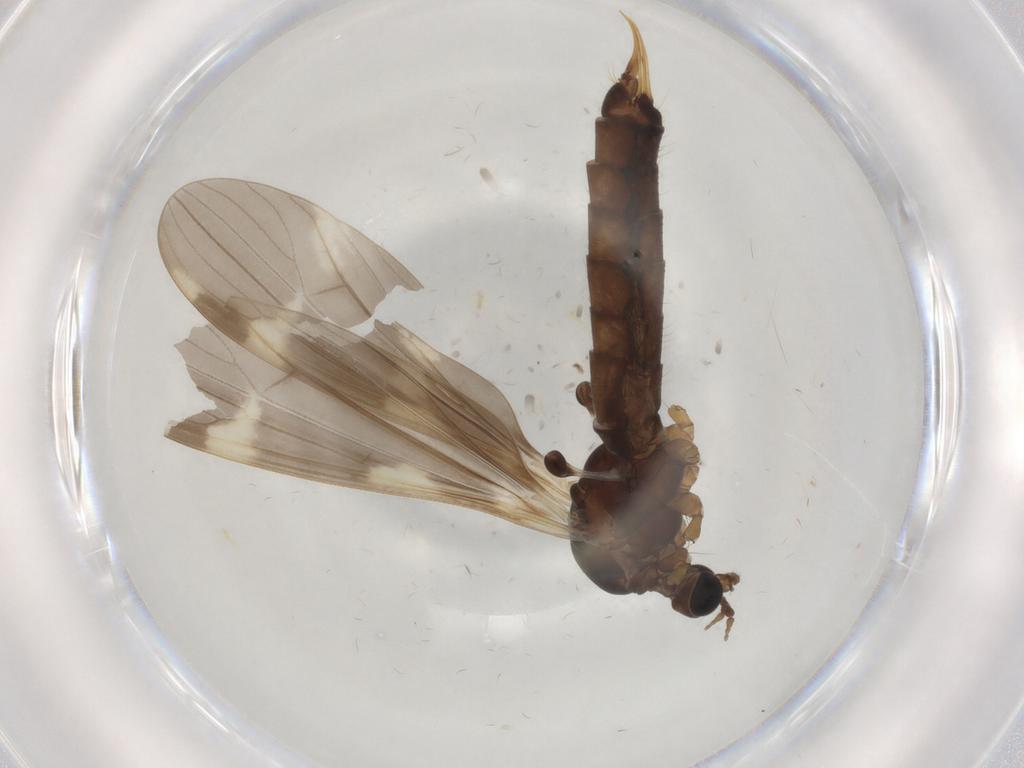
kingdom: Animalia
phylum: Arthropoda
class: Insecta
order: Diptera
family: Limoniidae
